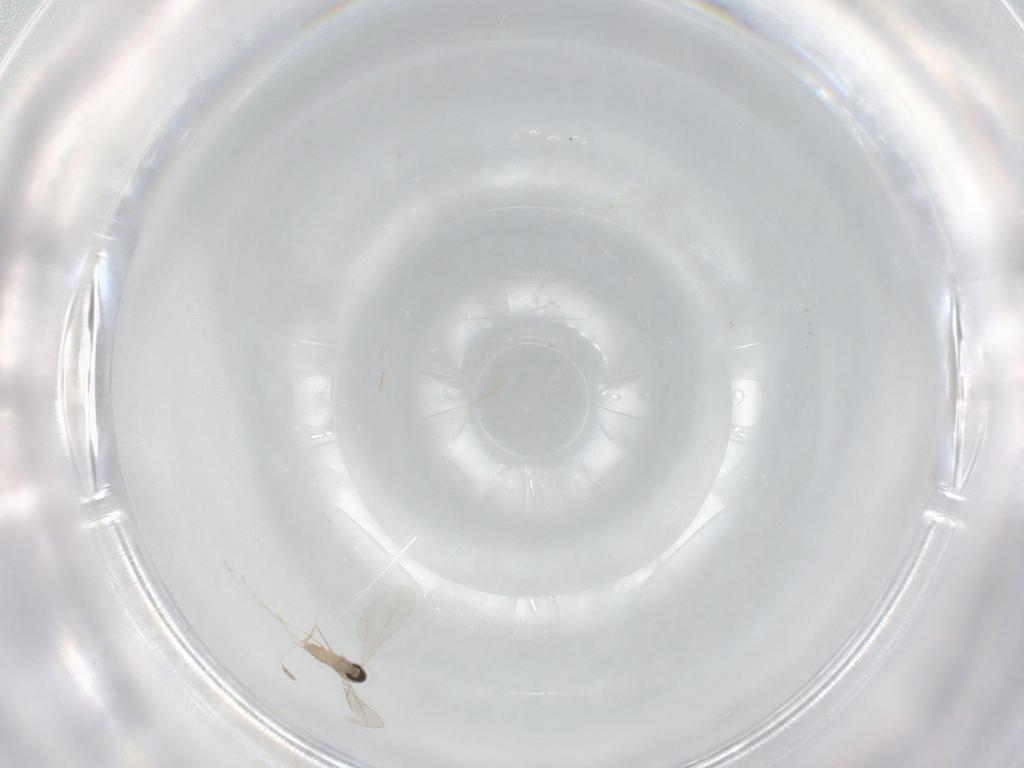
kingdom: Animalia
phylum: Arthropoda
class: Insecta
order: Diptera
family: Cecidomyiidae
